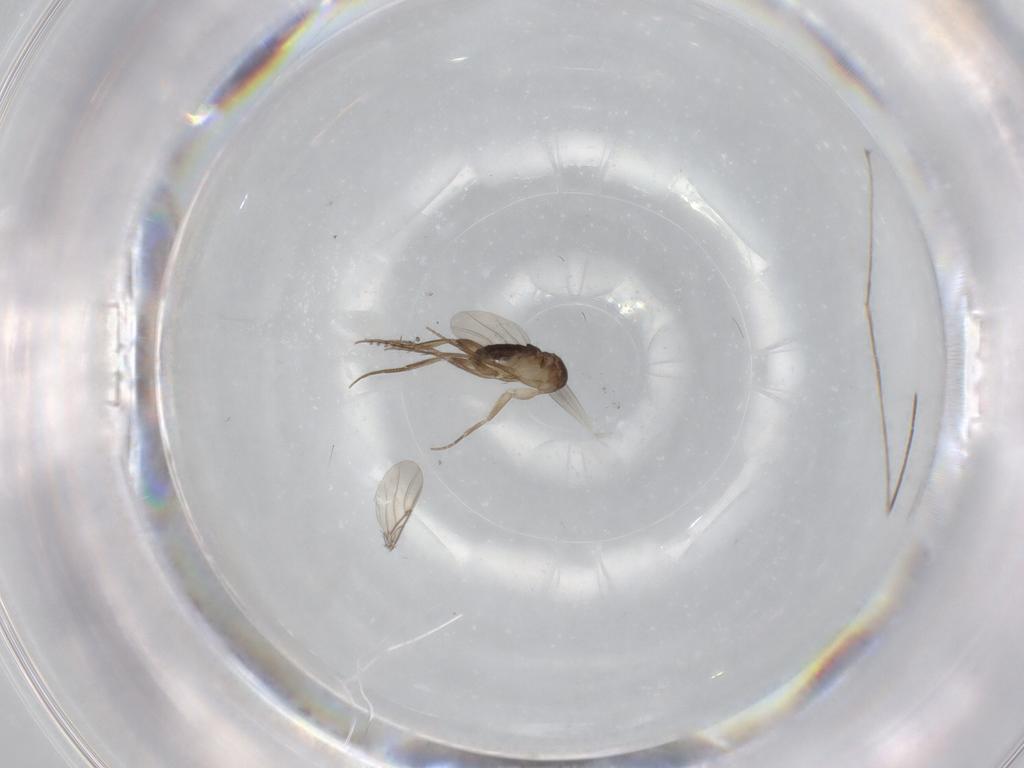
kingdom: Animalia
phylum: Arthropoda
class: Insecta
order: Diptera
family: Phoridae
